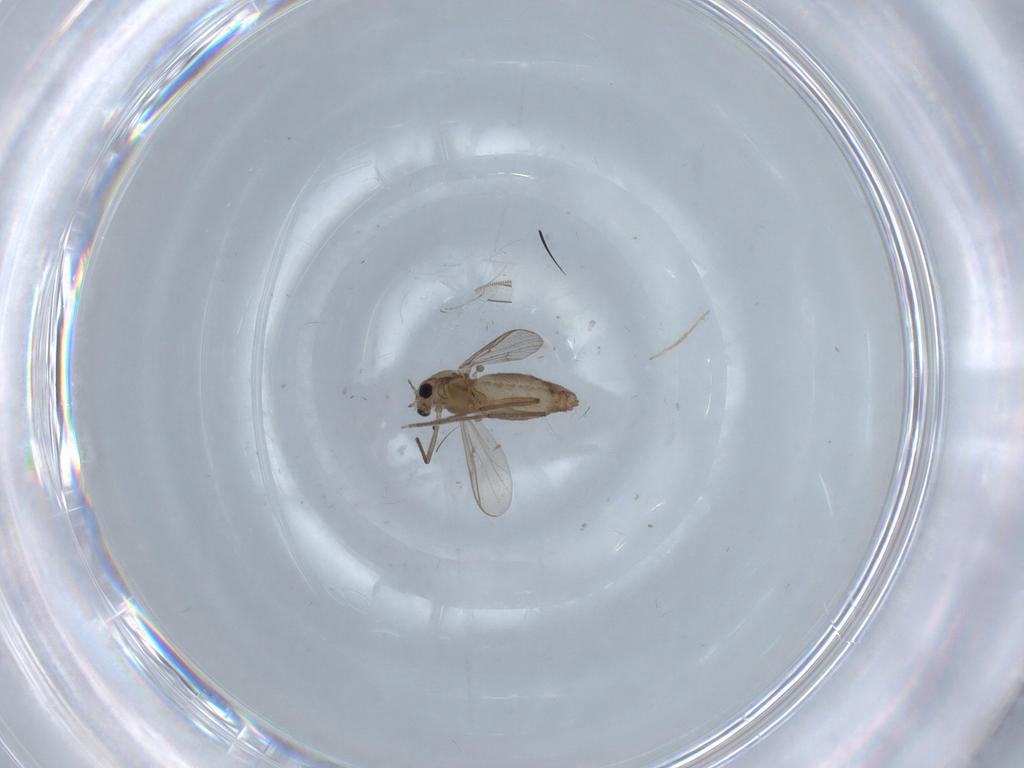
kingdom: Animalia
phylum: Arthropoda
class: Insecta
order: Diptera
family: Chironomidae
